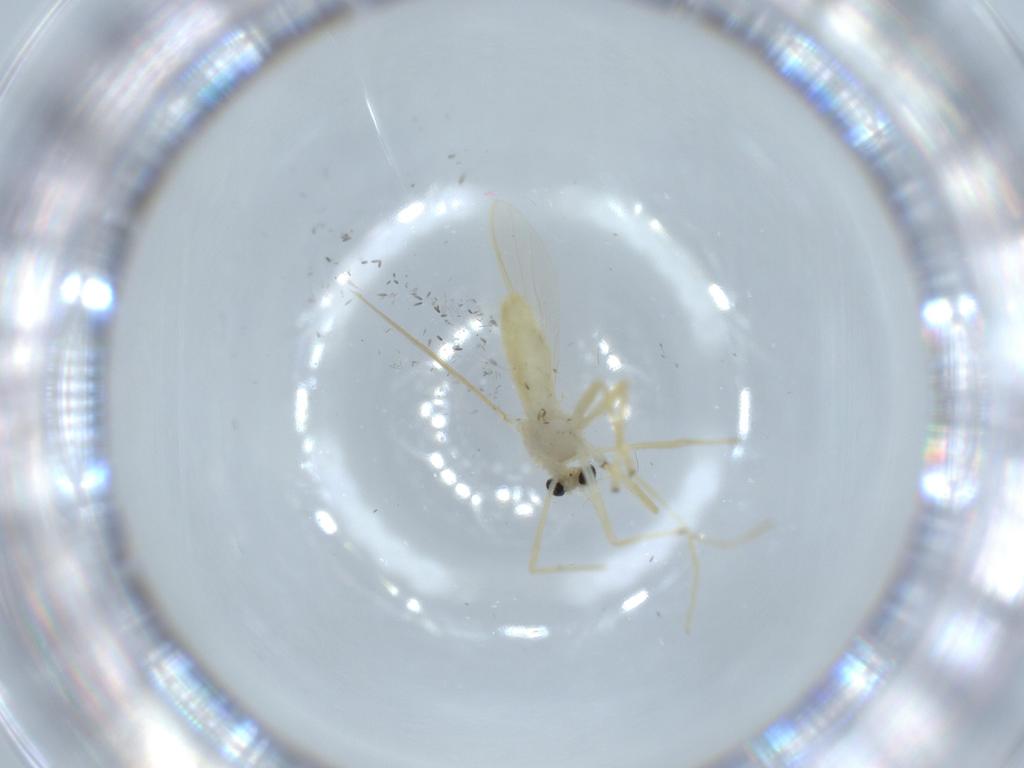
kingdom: Animalia
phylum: Arthropoda
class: Insecta
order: Diptera
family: Chironomidae
